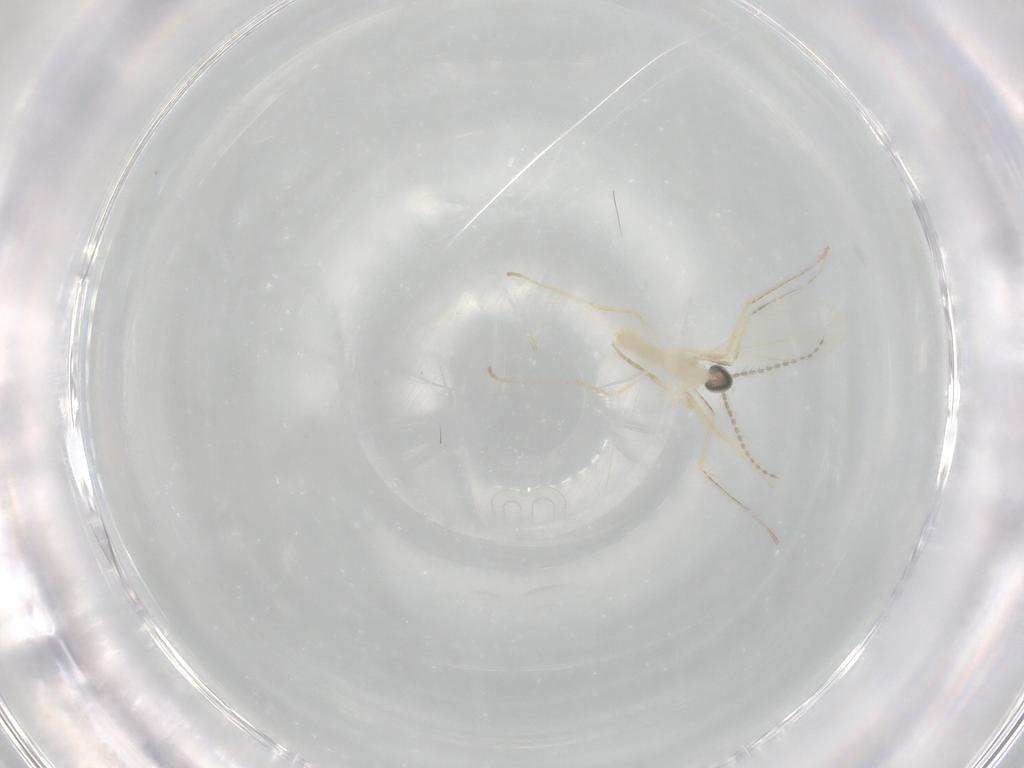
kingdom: Animalia
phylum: Arthropoda
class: Insecta
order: Diptera
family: Cecidomyiidae
